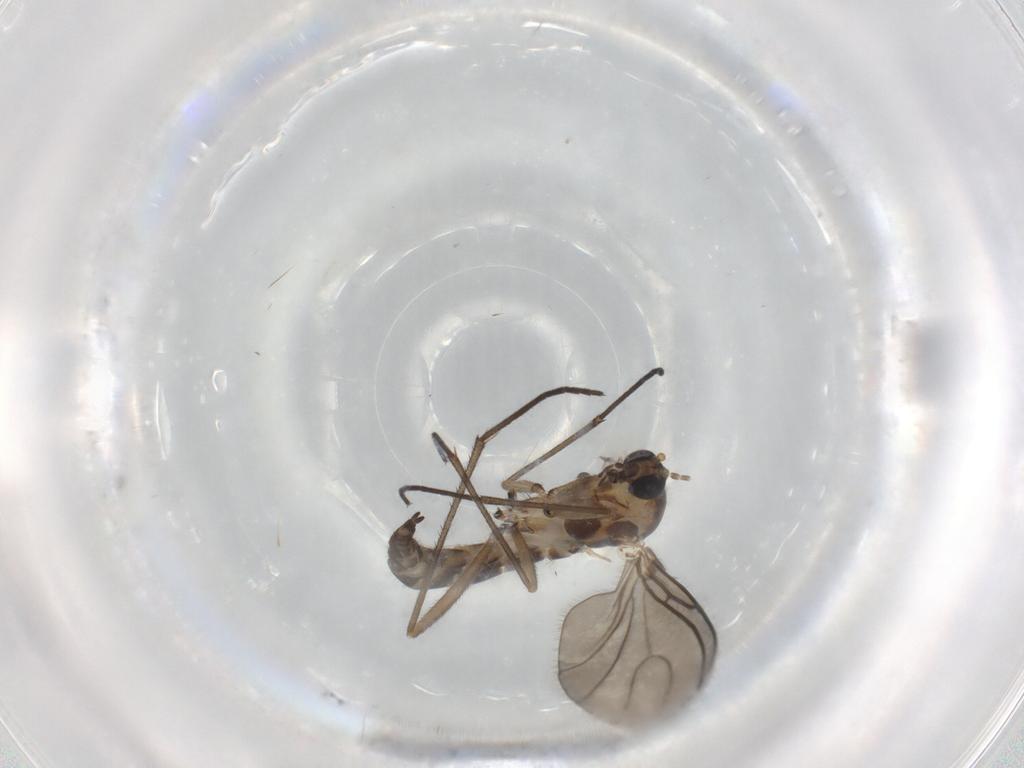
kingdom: Animalia
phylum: Arthropoda
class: Insecta
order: Diptera
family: Sciaridae
